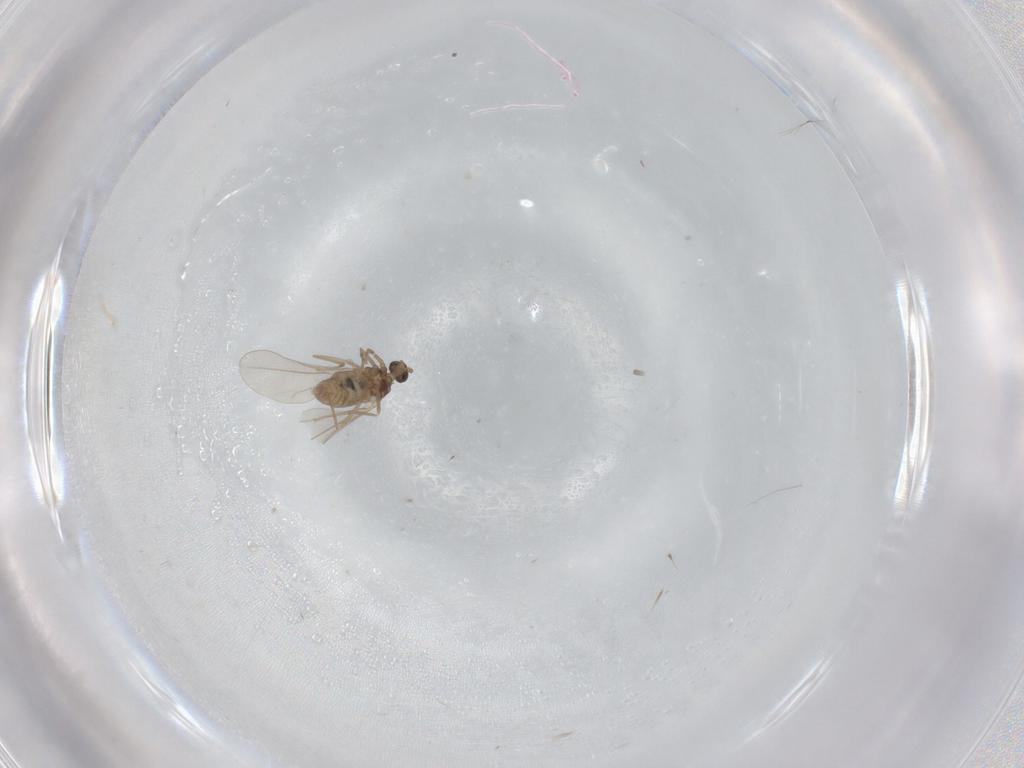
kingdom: Animalia
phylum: Arthropoda
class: Insecta
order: Diptera
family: Cecidomyiidae
